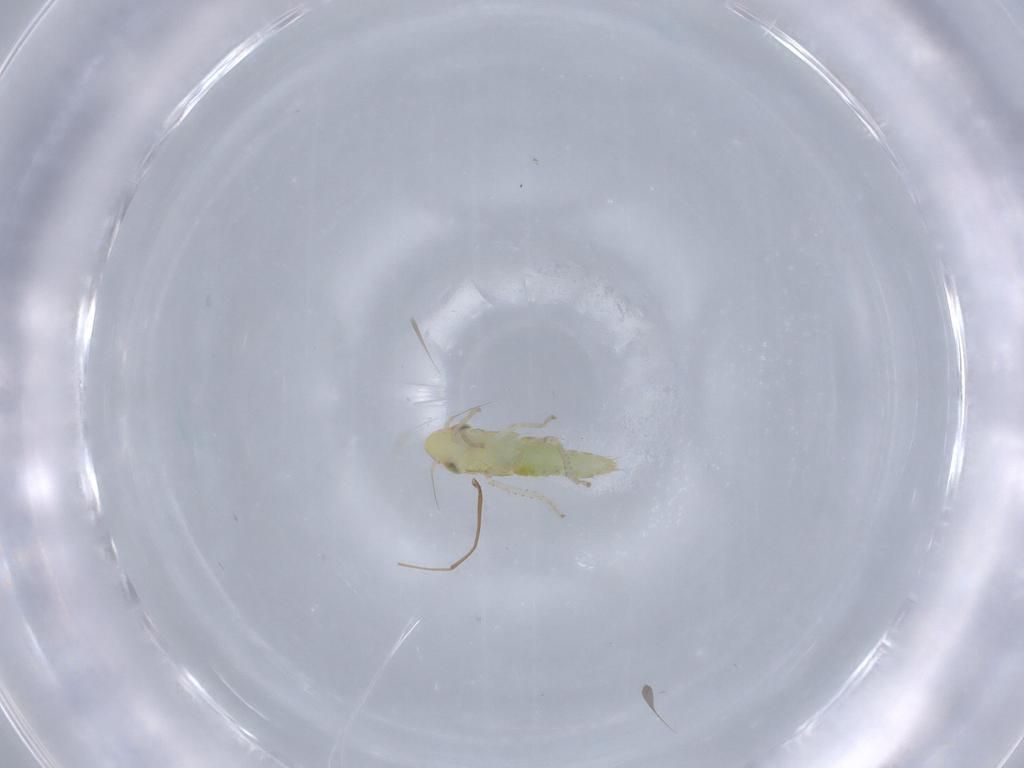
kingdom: Animalia
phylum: Arthropoda
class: Insecta
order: Hemiptera
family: Cicadellidae
